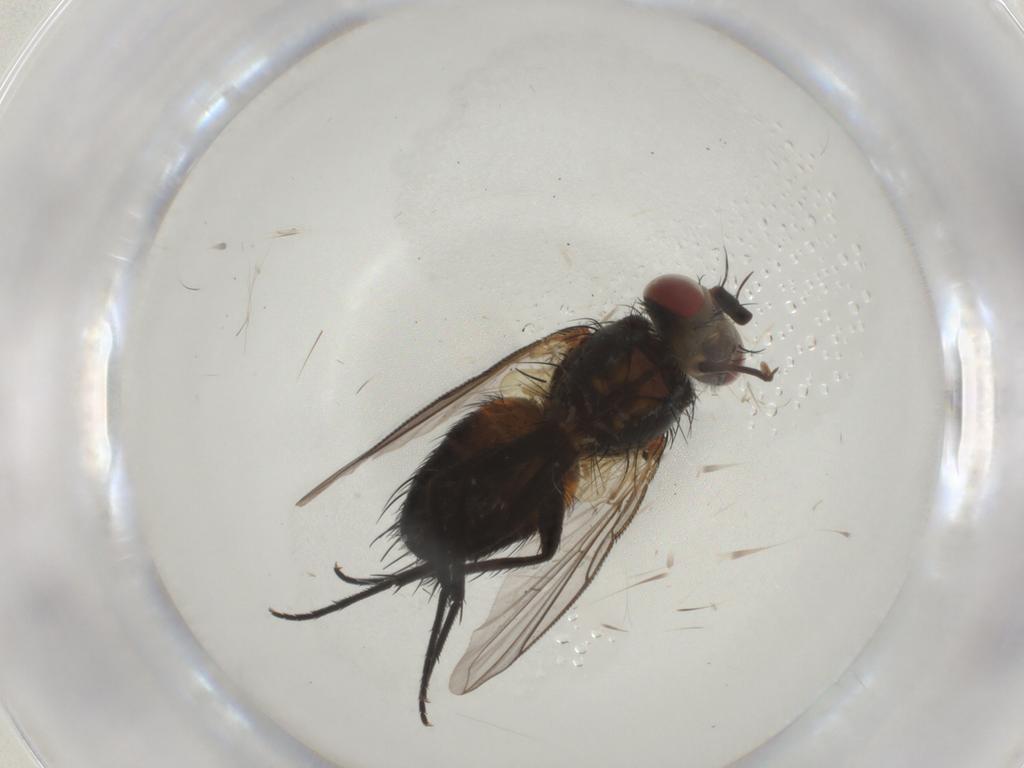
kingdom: Animalia
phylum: Arthropoda
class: Insecta
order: Diptera
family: Tachinidae
